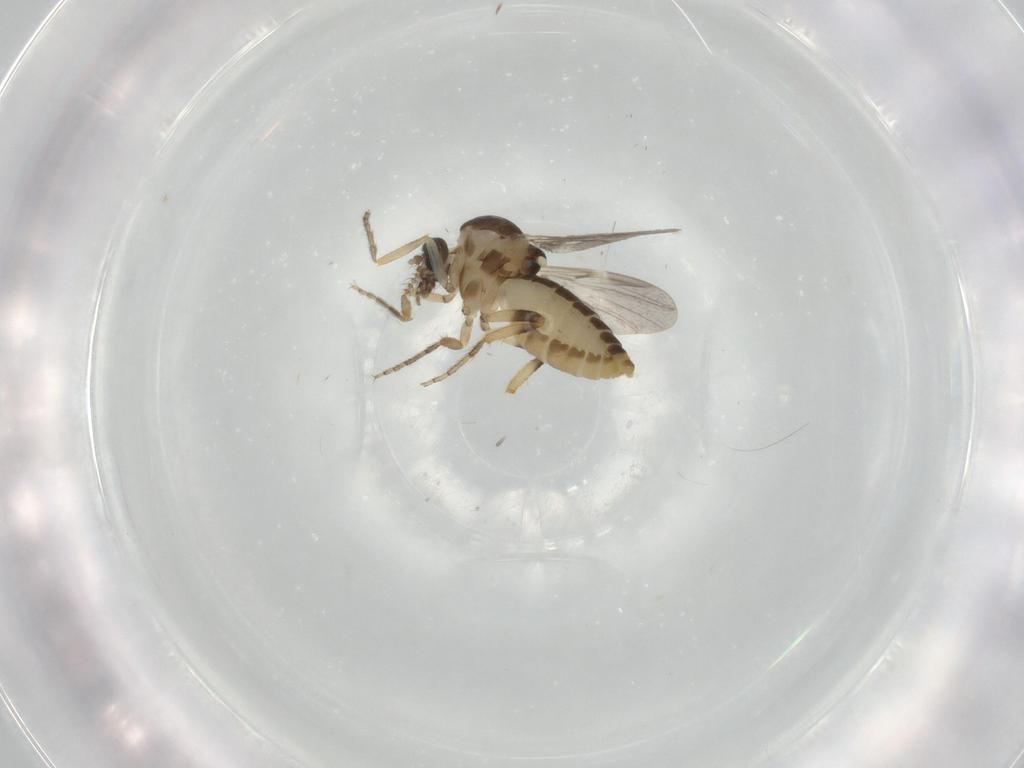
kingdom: Animalia
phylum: Arthropoda
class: Insecta
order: Diptera
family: Ceratopogonidae
